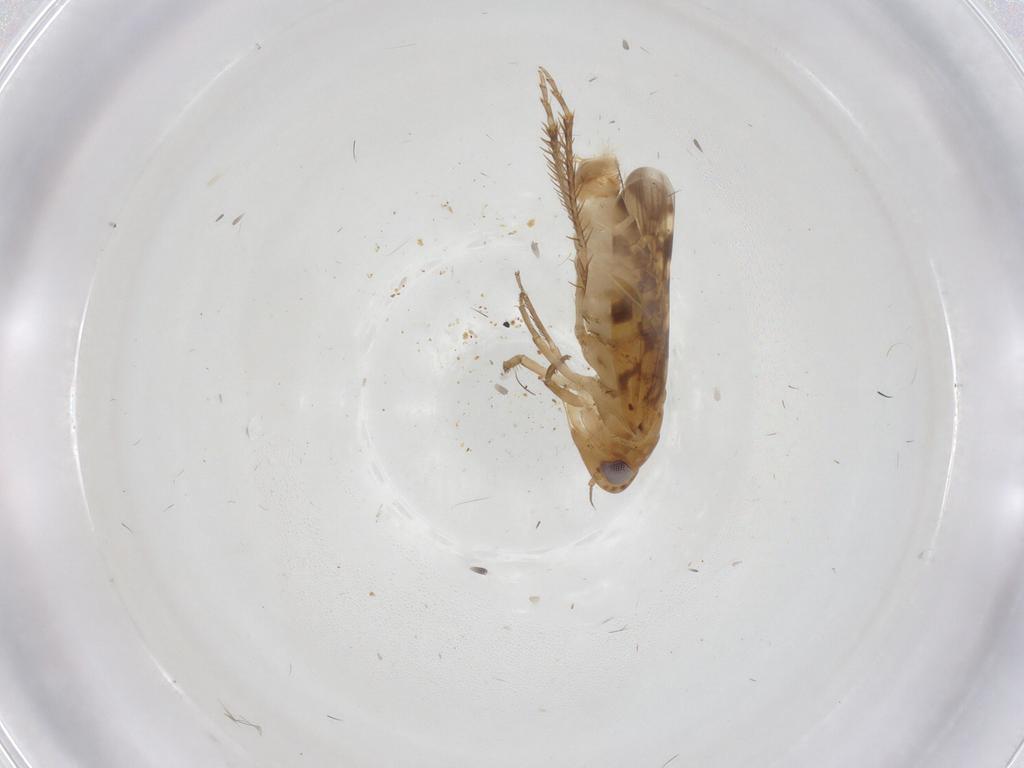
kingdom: Animalia
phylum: Arthropoda
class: Insecta
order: Hemiptera
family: Cicadellidae
